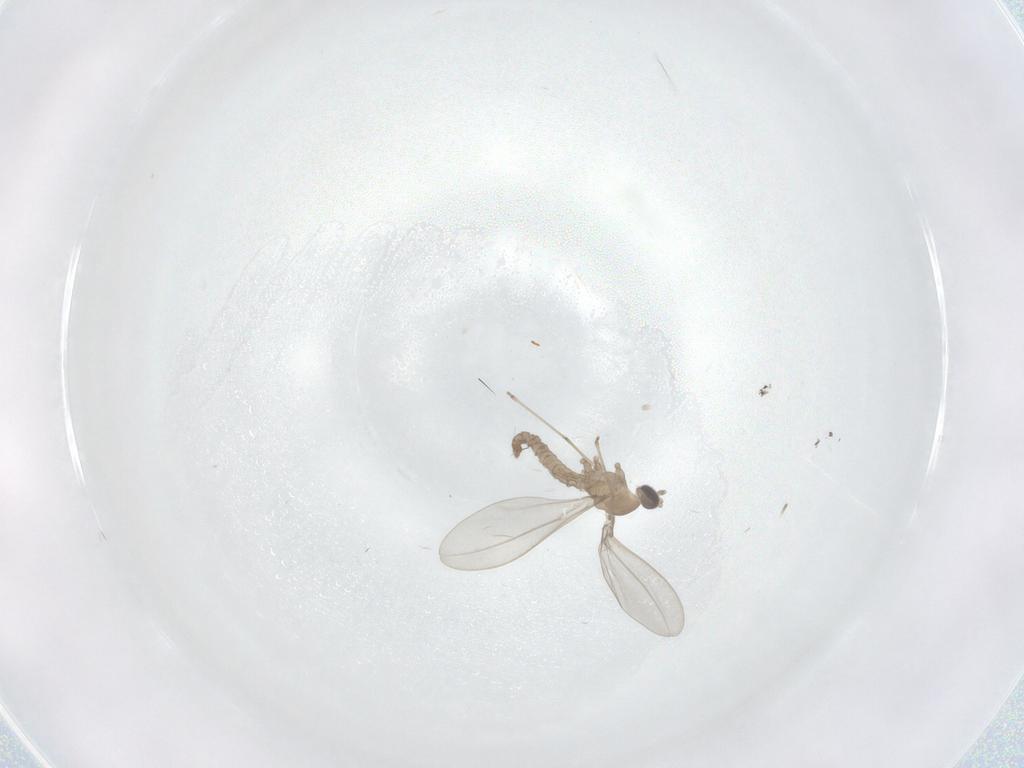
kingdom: Animalia
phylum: Arthropoda
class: Insecta
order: Diptera
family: Cecidomyiidae
